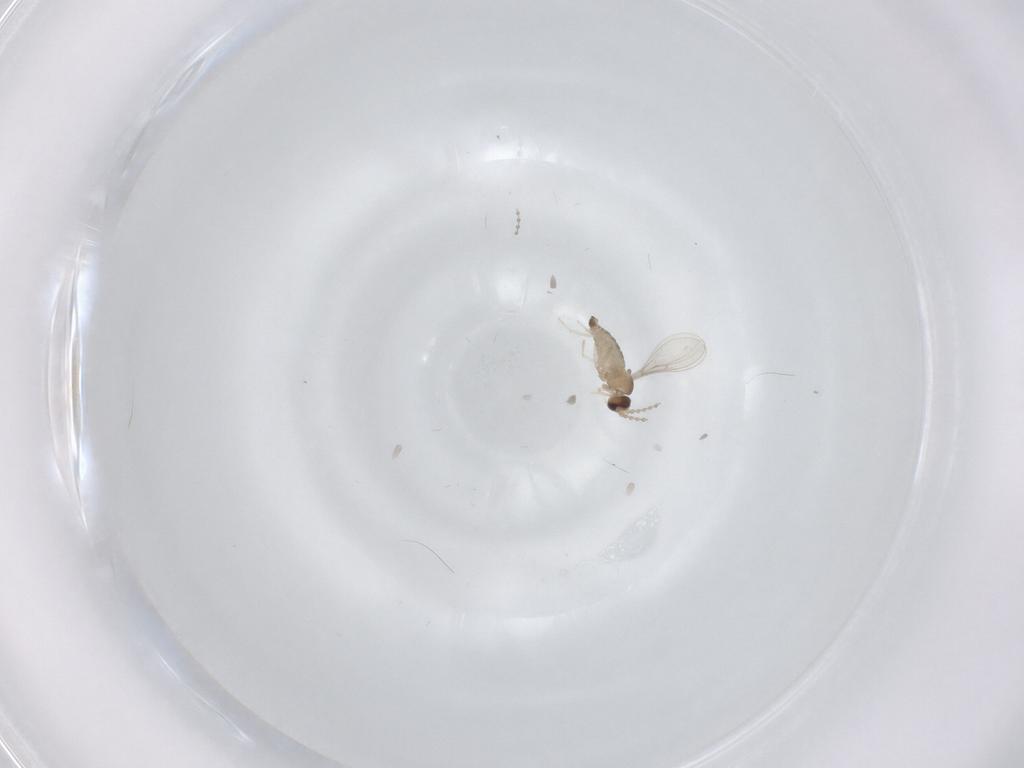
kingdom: Animalia
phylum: Arthropoda
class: Insecta
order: Diptera
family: Cecidomyiidae
